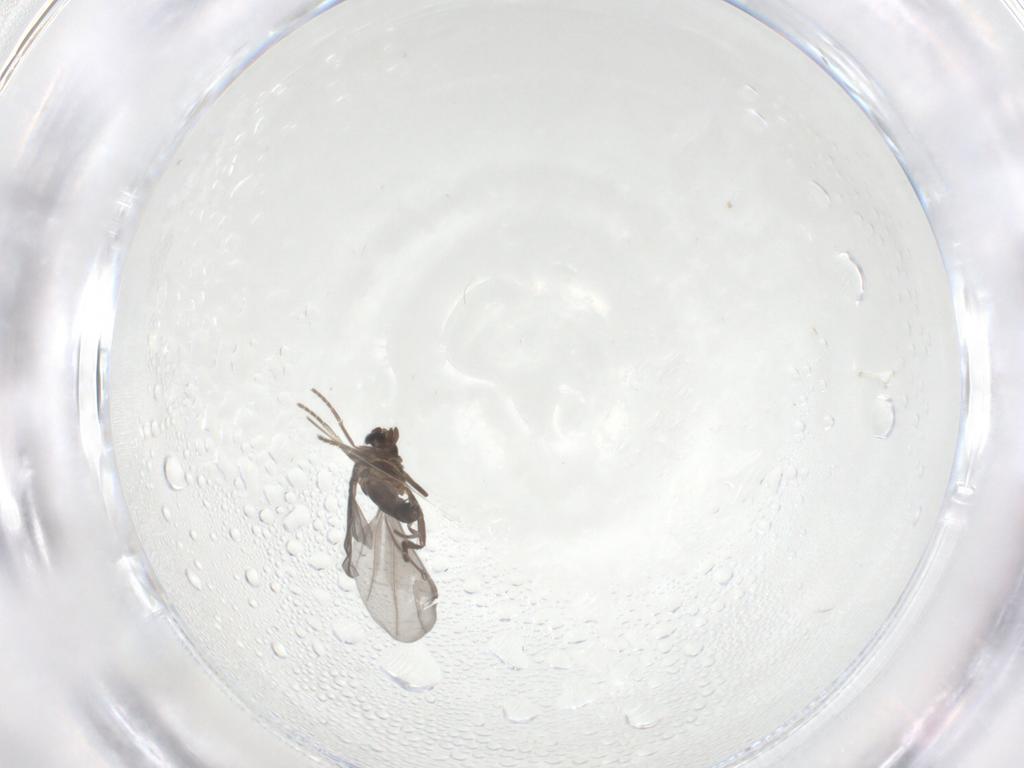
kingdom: Animalia
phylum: Arthropoda
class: Insecta
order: Diptera
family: Phoridae
